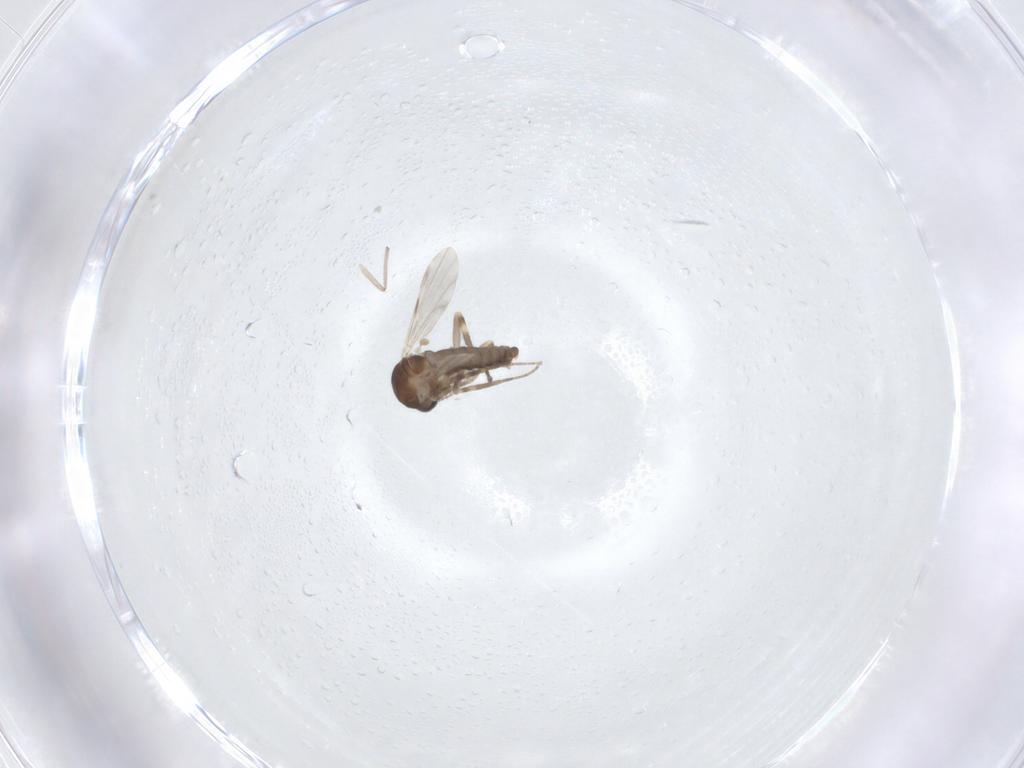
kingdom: Animalia
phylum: Arthropoda
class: Insecta
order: Diptera
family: Ceratopogonidae
